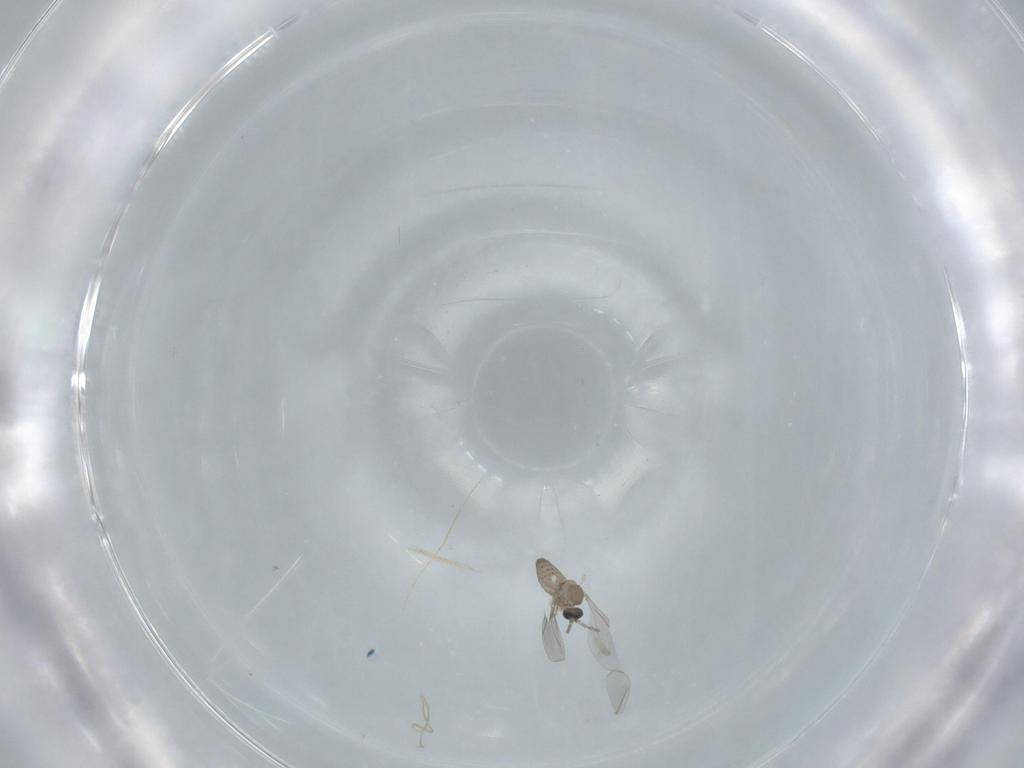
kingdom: Animalia
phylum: Arthropoda
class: Insecta
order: Diptera
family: Cecidomyiidae
